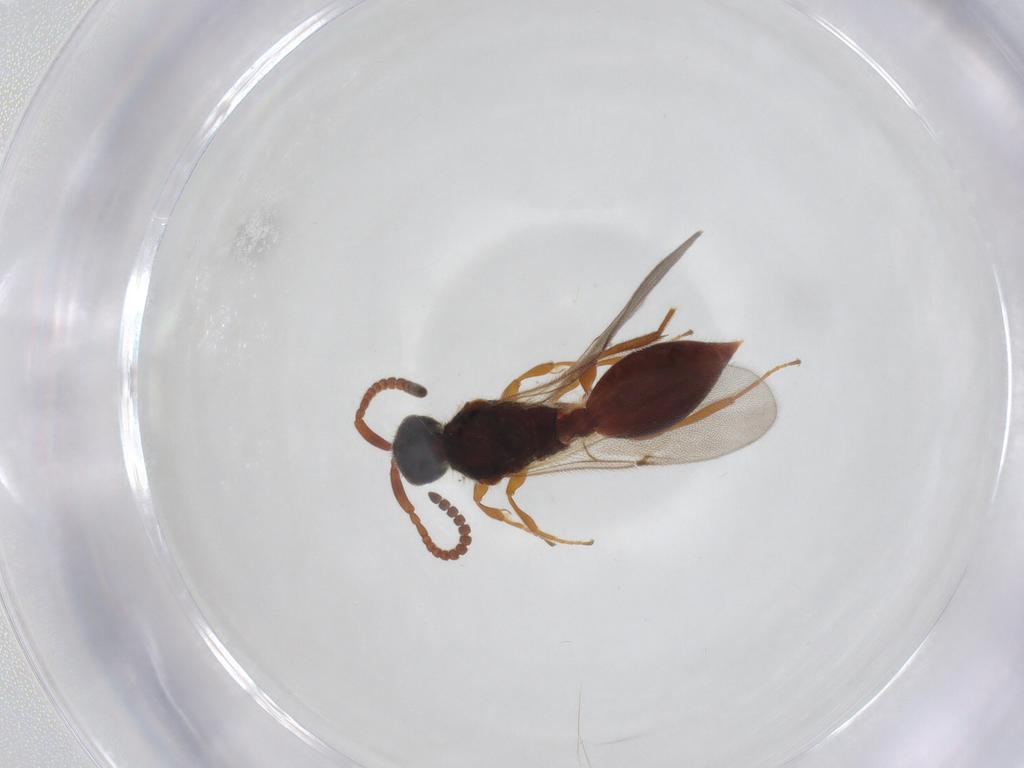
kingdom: Animalia
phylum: Arthropoda
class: Insecta
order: Hymenoptera
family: Diapriidae
